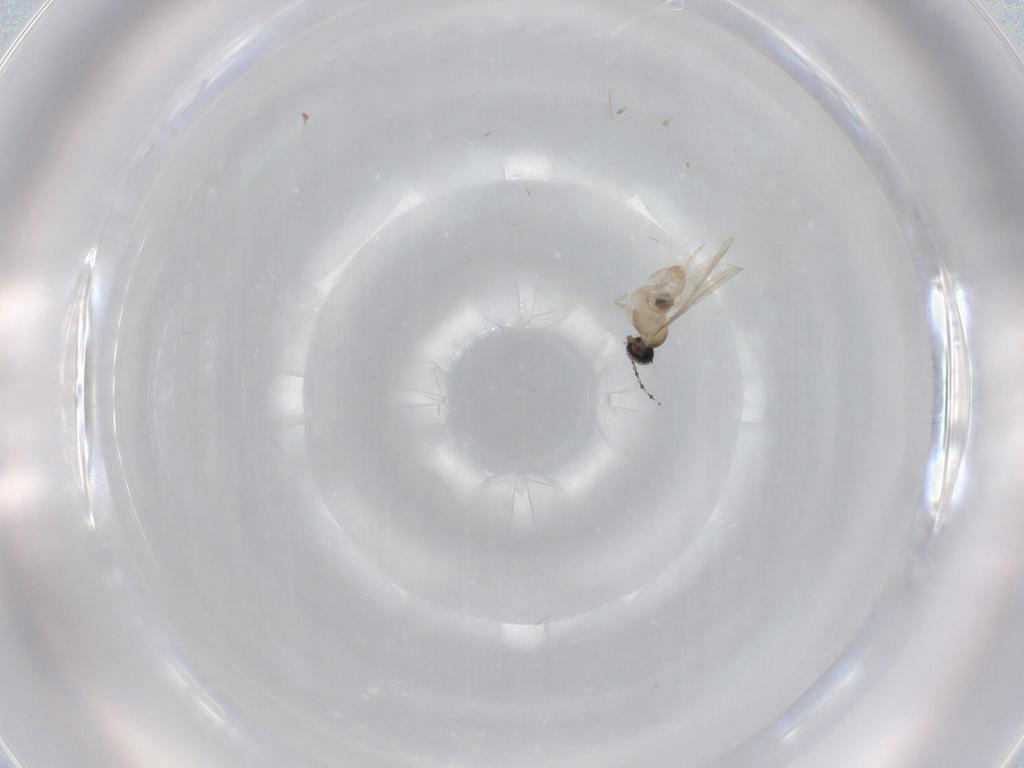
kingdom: Animalia
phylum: Arthropoda
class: Insecta
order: Diptera
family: Cecidomyiidae
